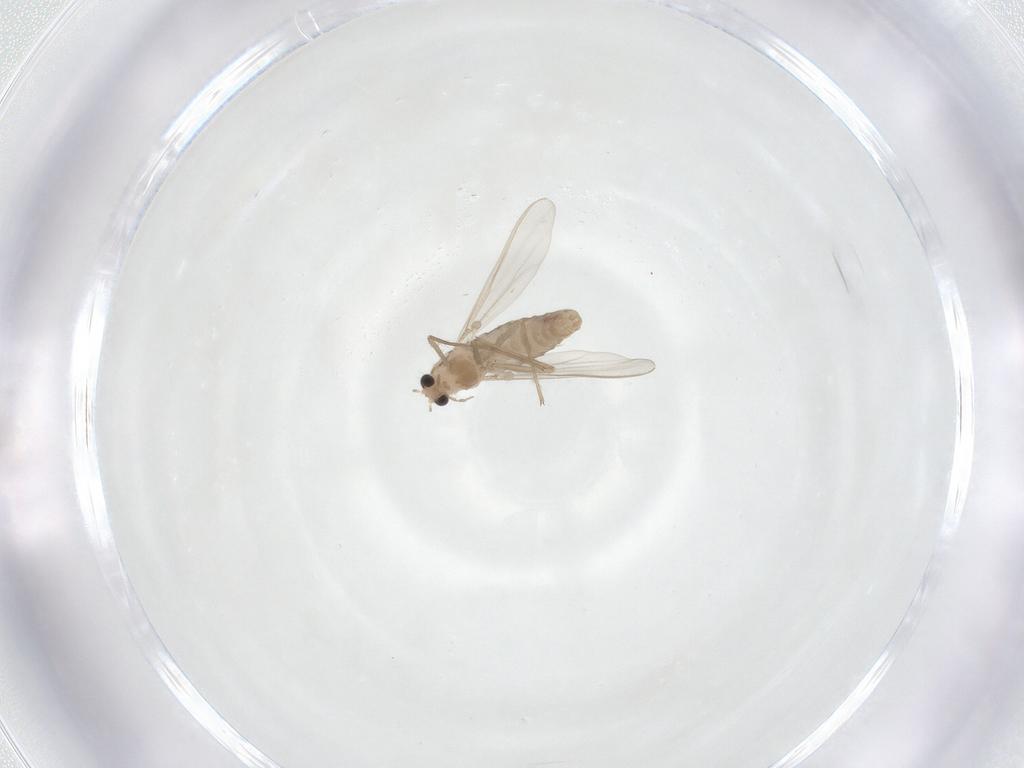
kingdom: Animalia
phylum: Arthropoda
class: Insecta
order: Diptera
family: Chironomidae
